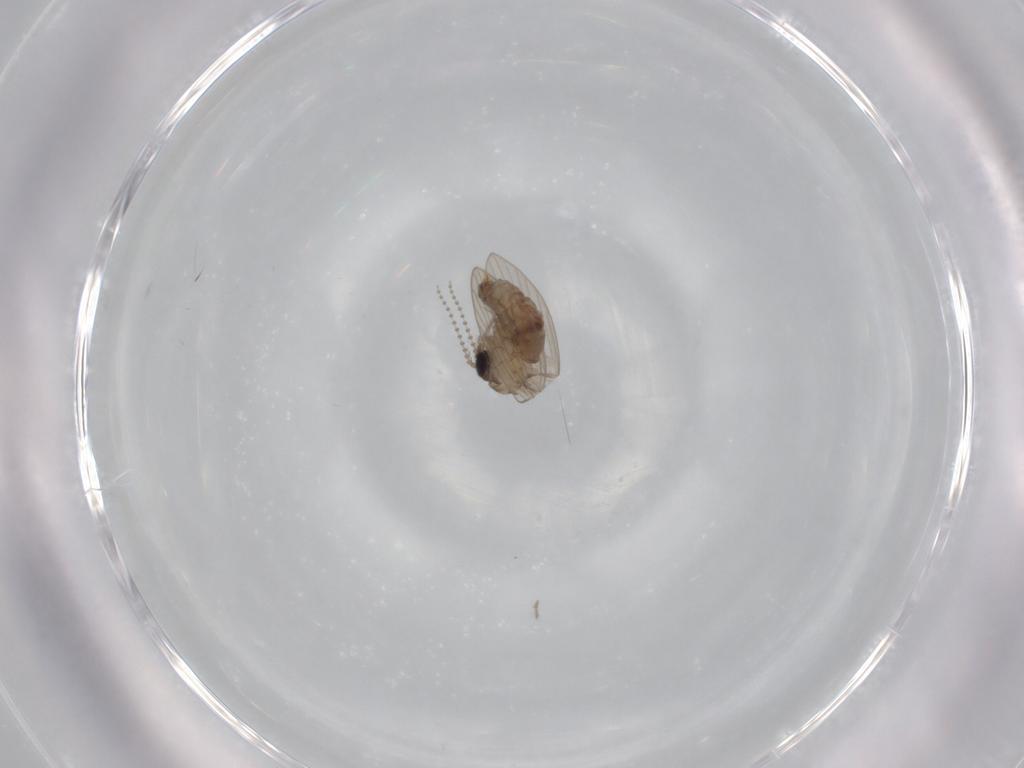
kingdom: Animalia
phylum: Arthropoda
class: Insecta
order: Diptera
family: Psychodidae
